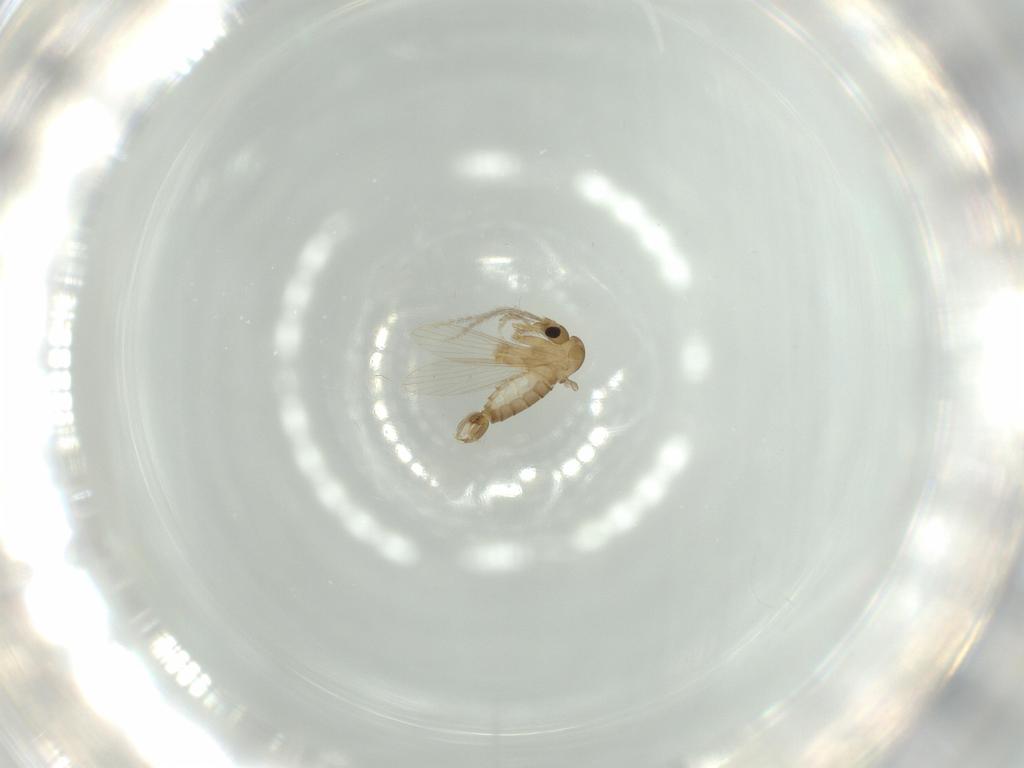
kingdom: Animalia
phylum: Arthropoda
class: Insecta
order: Diptera
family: Psychodidae
